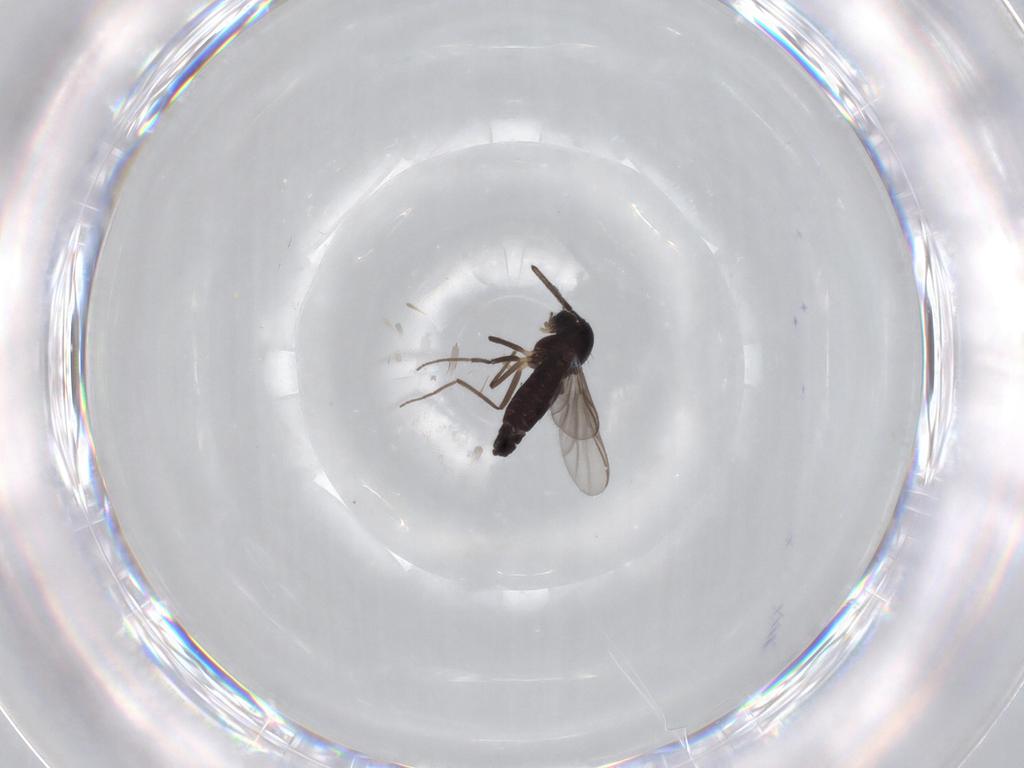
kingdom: Animalia
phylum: Arthropoda
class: Insecta
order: Diptera
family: Chironomidae
